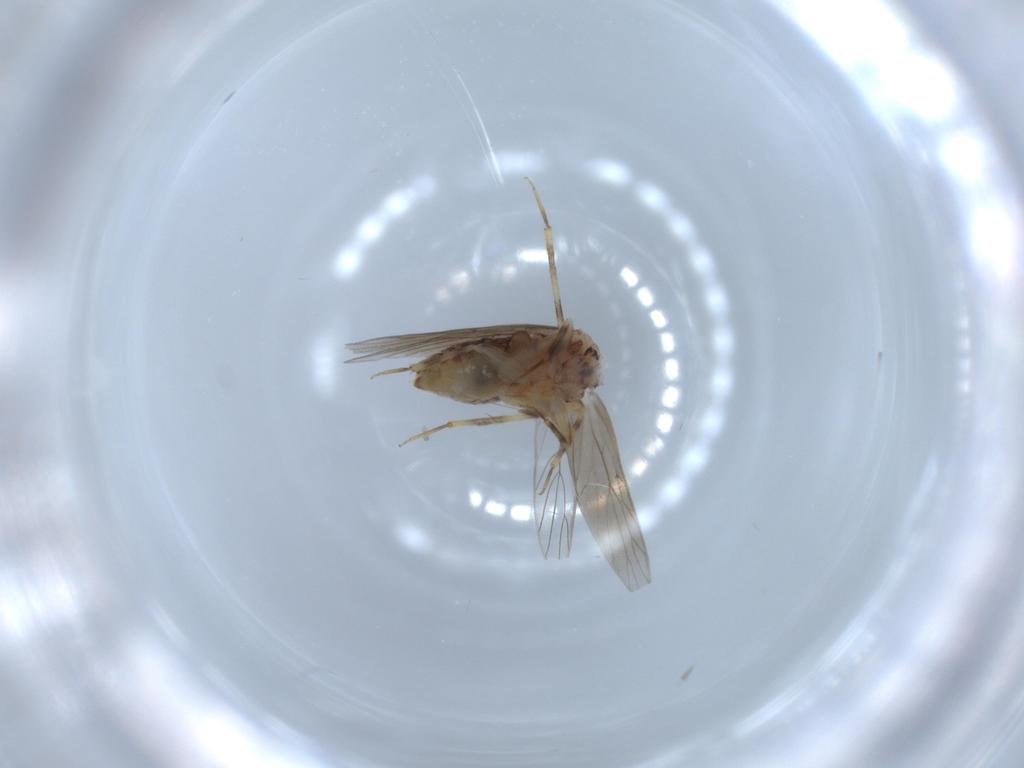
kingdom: Animalia
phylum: Arthropoda
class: Insecta
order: Psocodea
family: Lepidopsocidae
